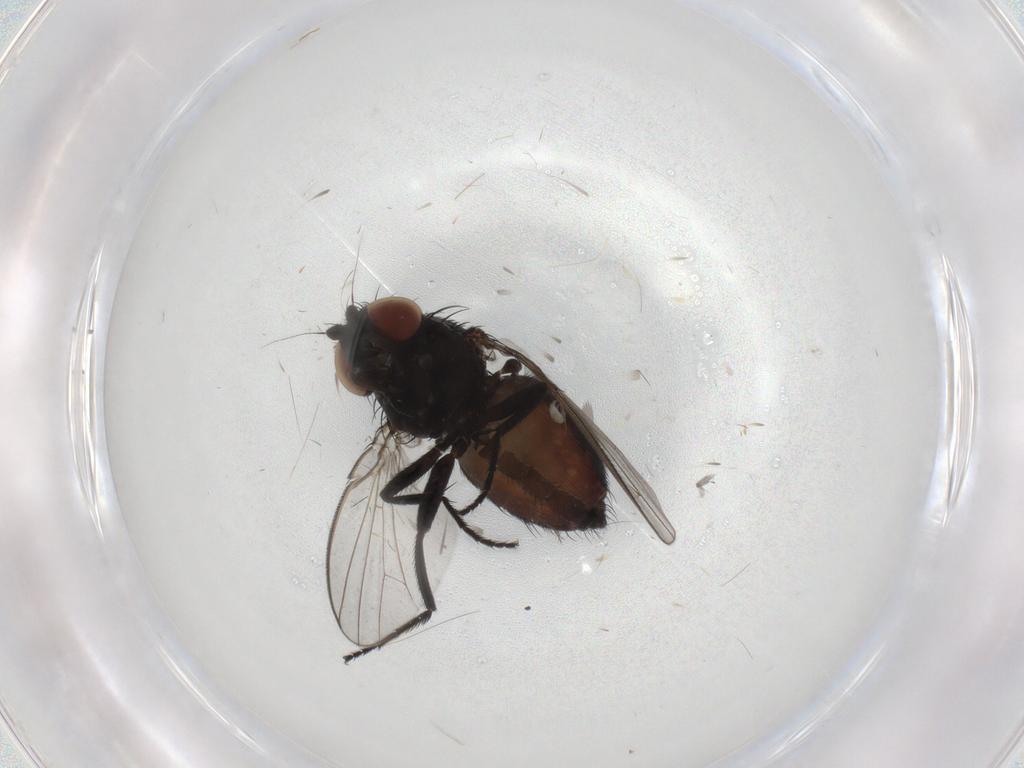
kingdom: Animalia
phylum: Arthropoda
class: Insecta
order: Diptera
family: Milichiidae
